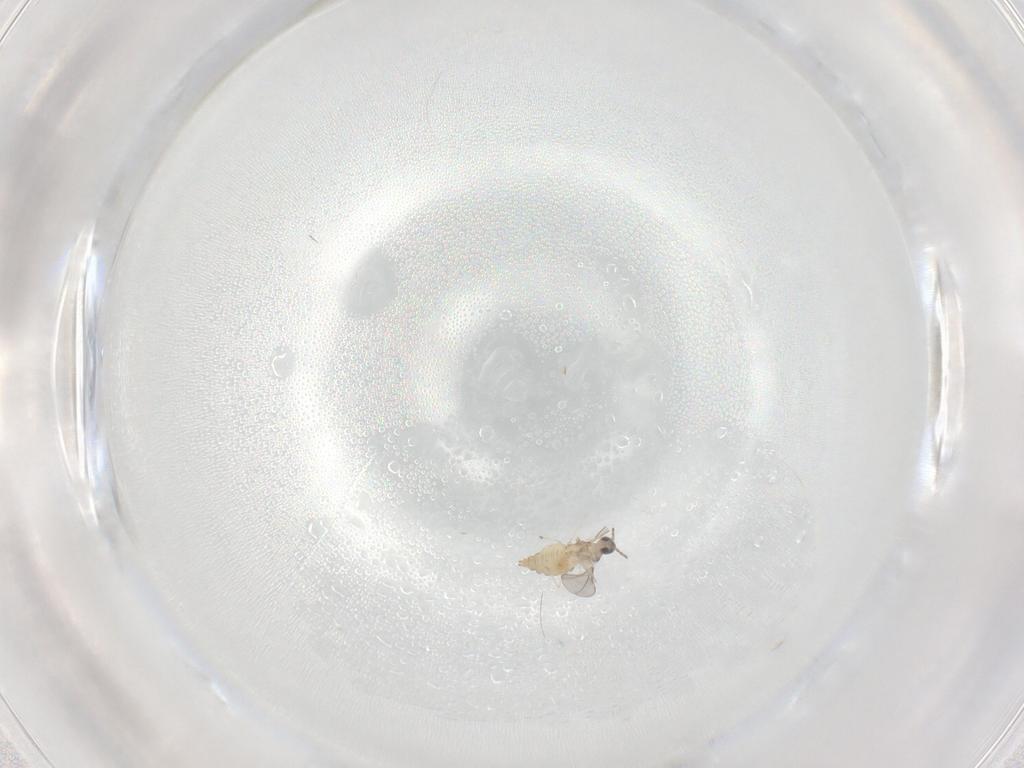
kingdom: Animalia
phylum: Arthropoda
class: Insecta
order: Diptera
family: Cecidomyiidae
